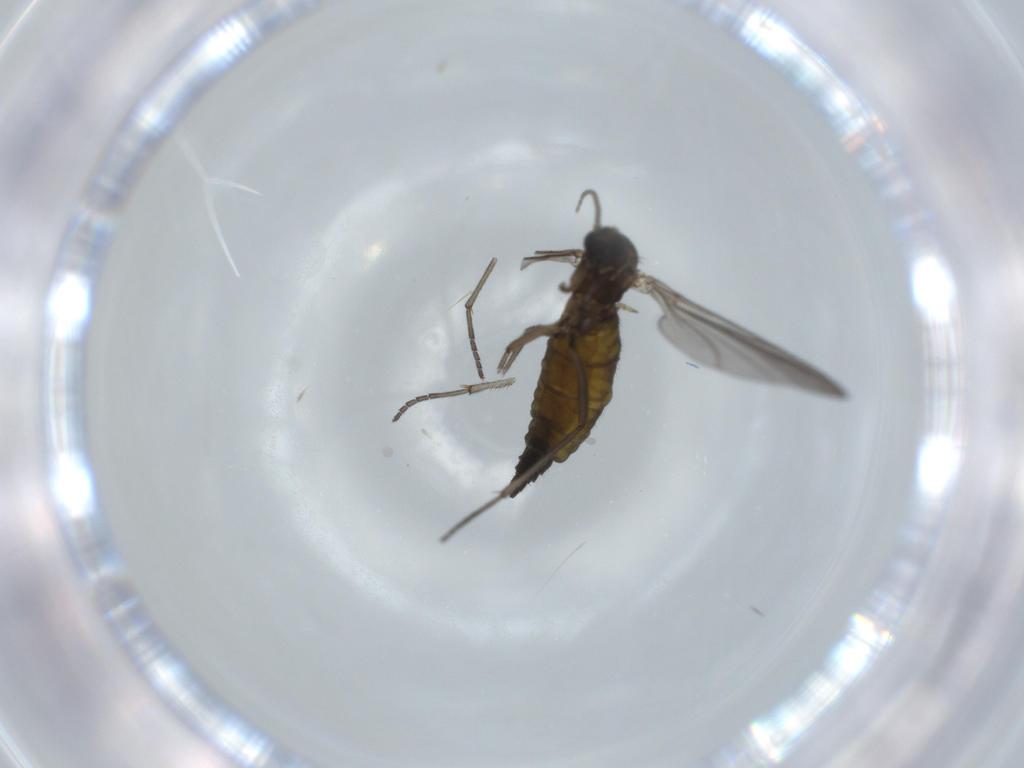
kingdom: Animalia
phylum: Arthropoda
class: Insecta
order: Diptera
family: Sciaridae
